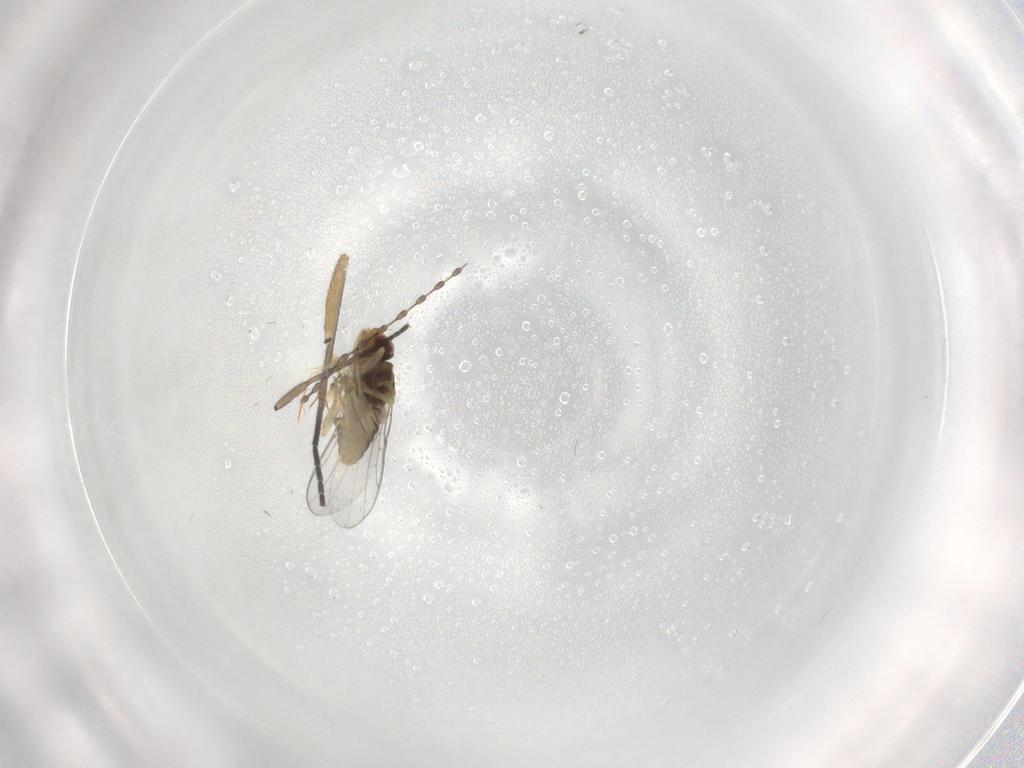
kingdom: Animalia
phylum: Arthropoda
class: Insecta
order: Diptera
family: Chloropidae
